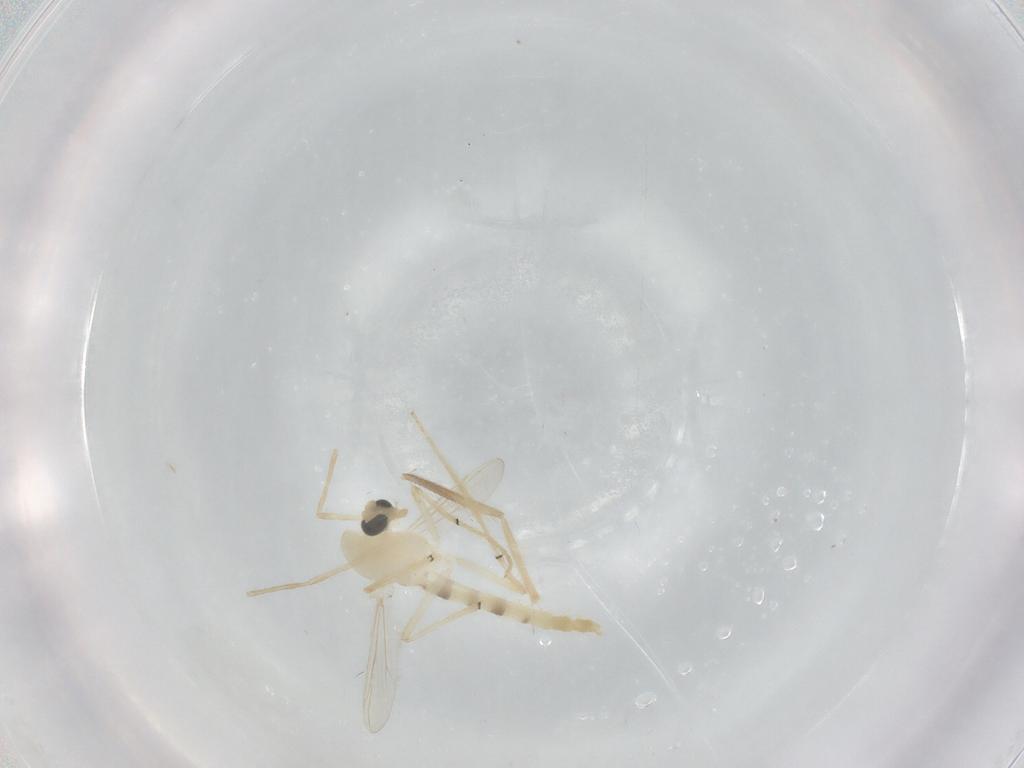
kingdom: Animalia
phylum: Arthropoda
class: Insecta
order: Diptera
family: Chironomidae
